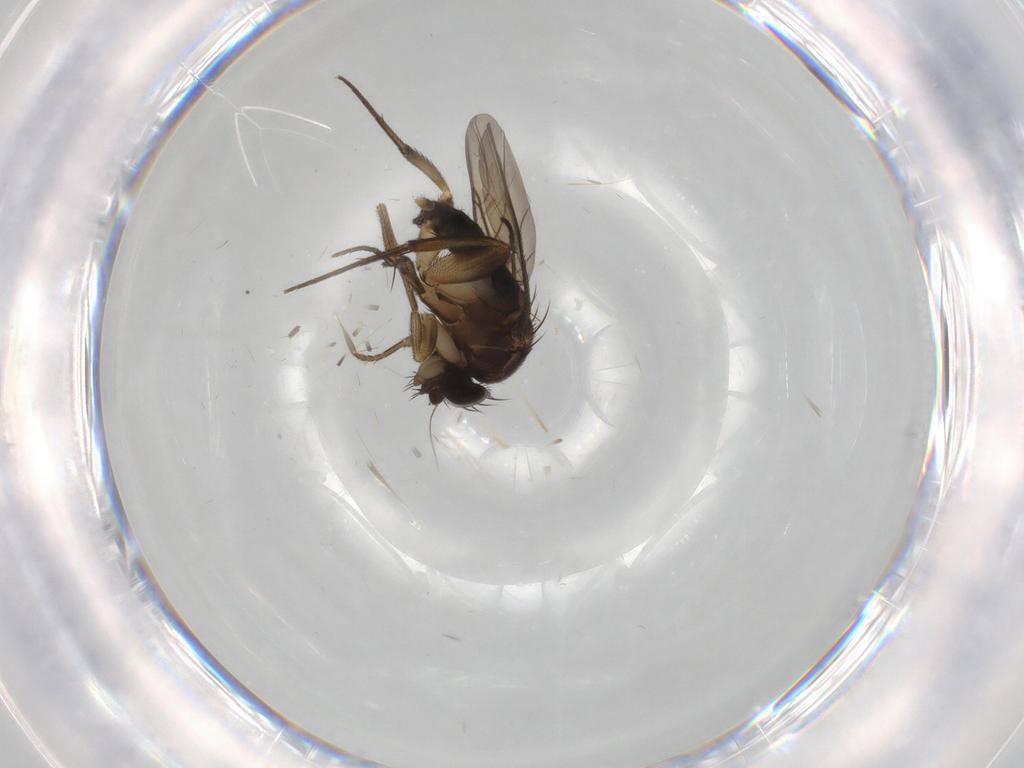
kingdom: Animalia
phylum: Arthropoda
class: Insecta
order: Diptera
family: Phoridae
